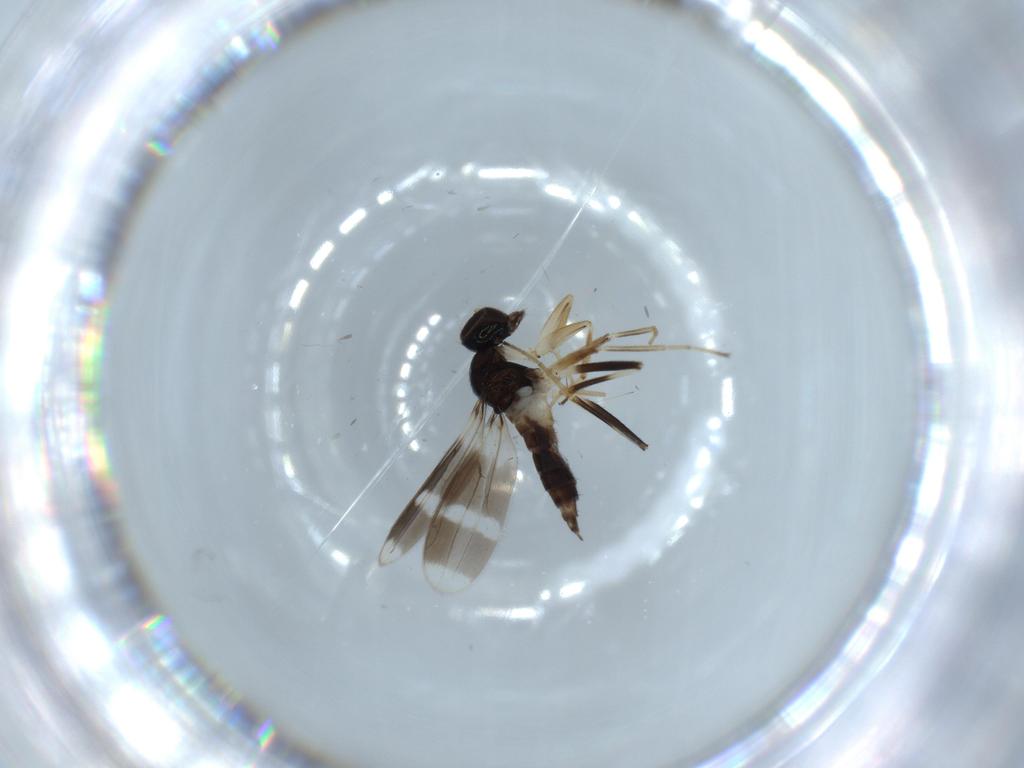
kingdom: Animalia
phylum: Arthropoda
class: Insecta
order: Diptera
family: Hybotidae
